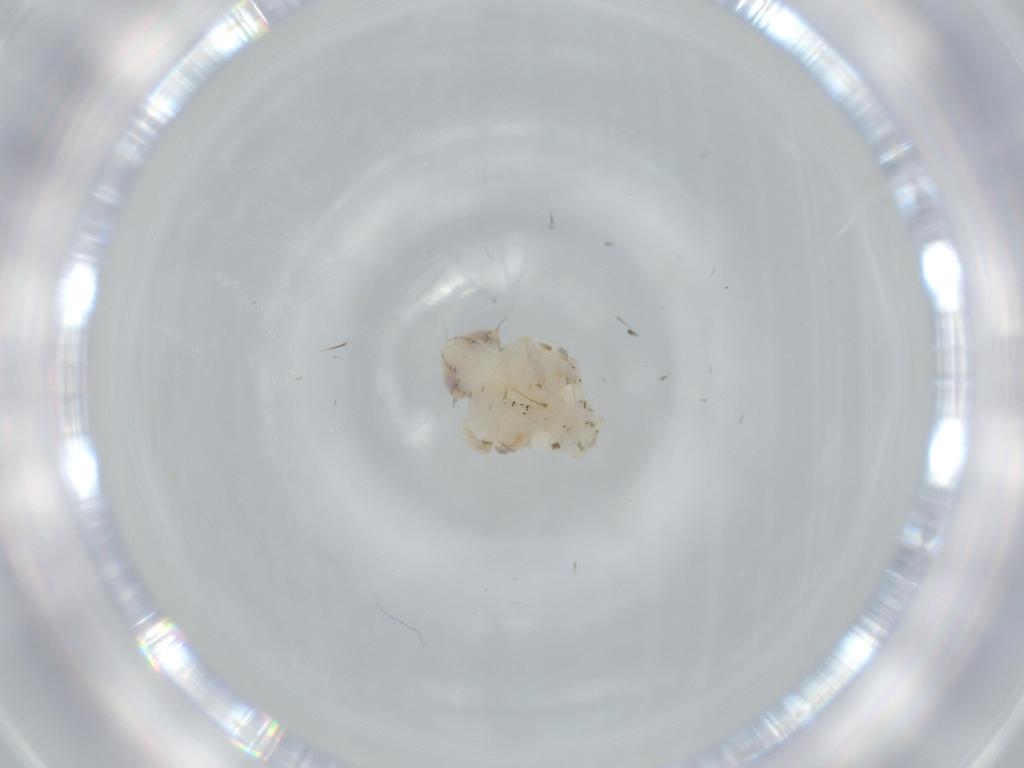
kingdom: Animalia
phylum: Arthropoda
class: Insecta
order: Hemiptera
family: Nogodinidae
